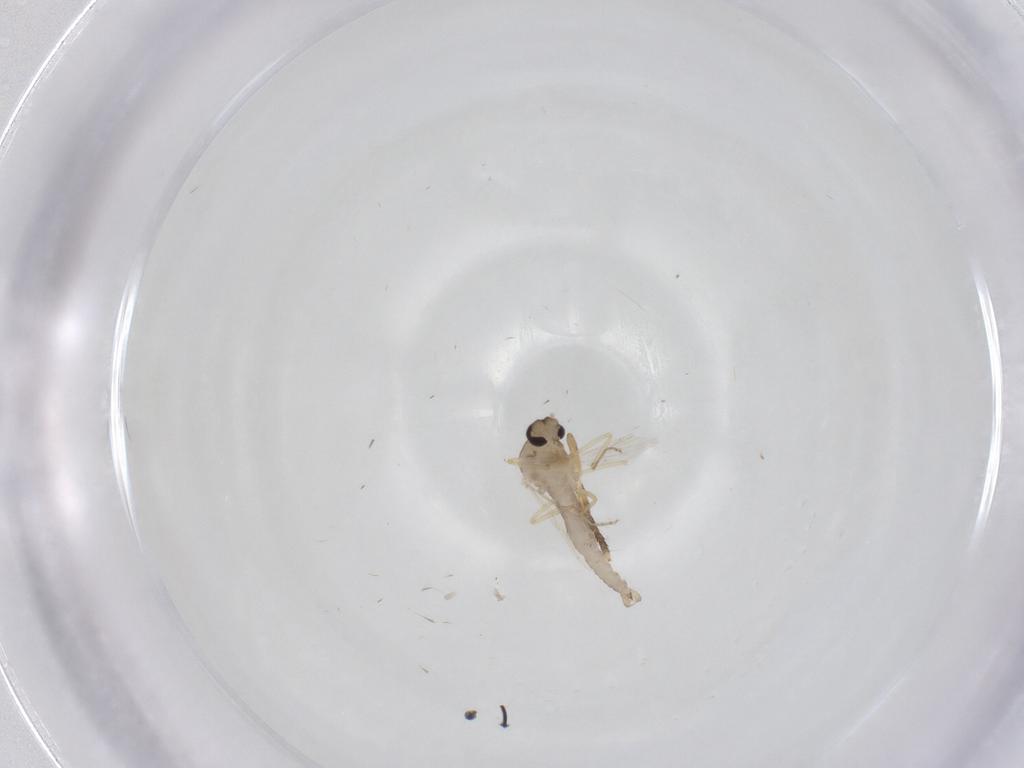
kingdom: Animalia
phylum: Arthropoda
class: Insecta
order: Diptera
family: Ceratopogonidae
